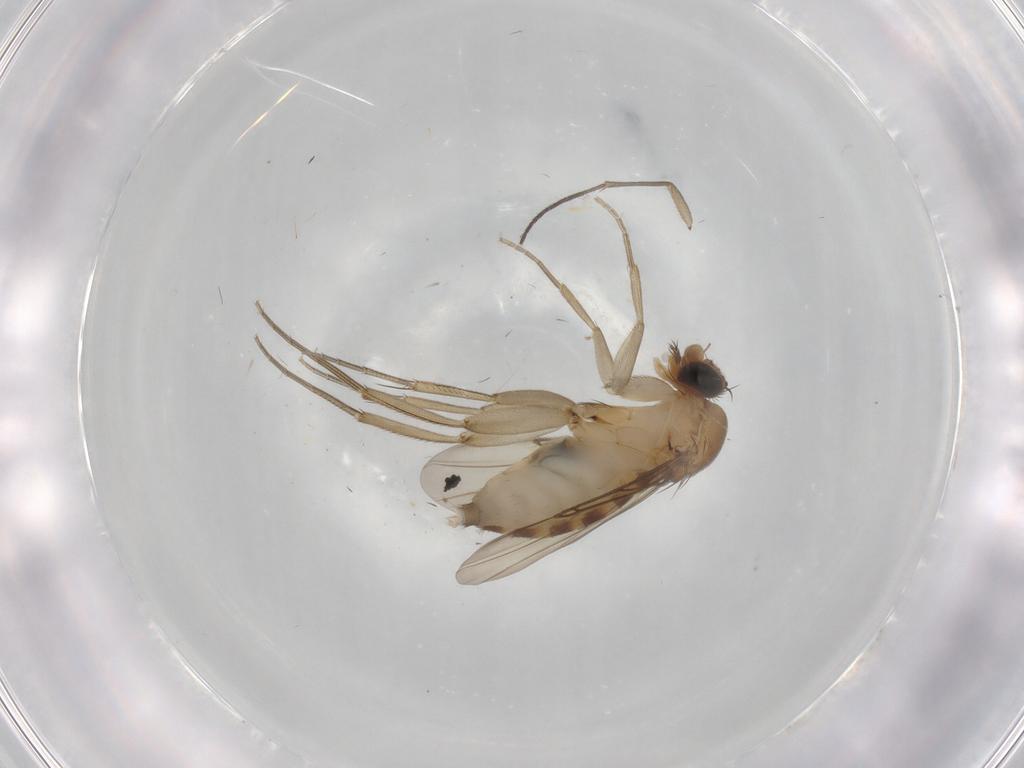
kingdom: Animalia
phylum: Arthropoda
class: Insecta
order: Diptera
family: Phoridae
